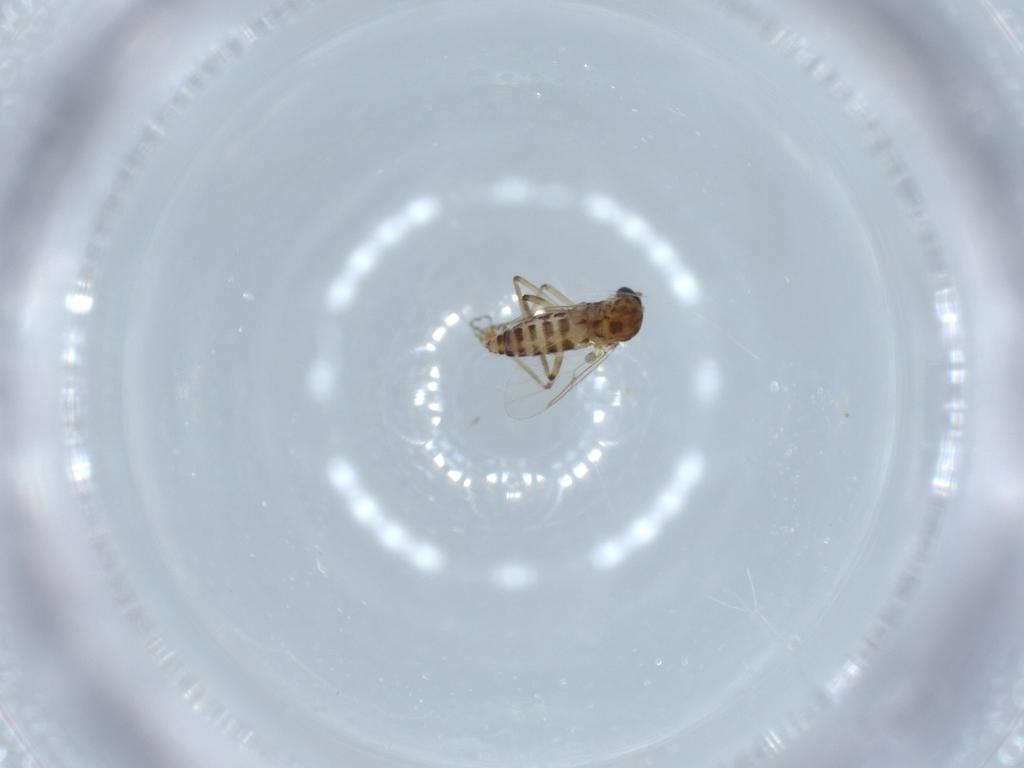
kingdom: Animalia
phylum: Arthropoda
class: Insecta
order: Diptera
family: Ceratopogonidae
